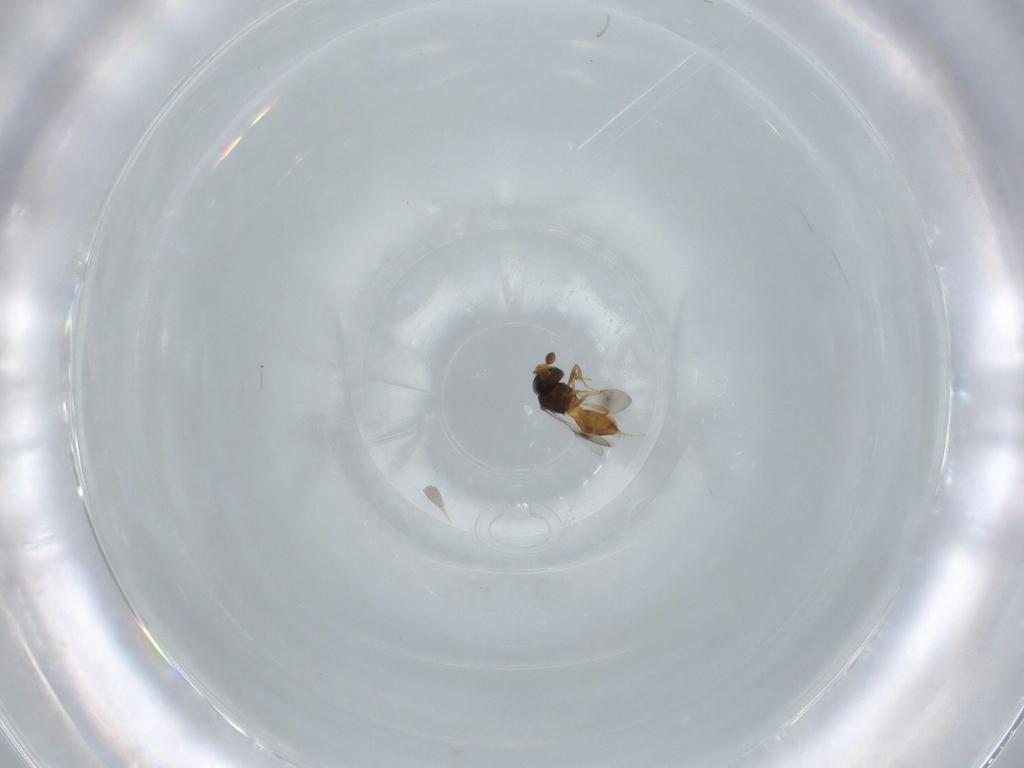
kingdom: Animalia
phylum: Arthropoda
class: Insecta
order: Hymenoptera
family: Scelionidae
